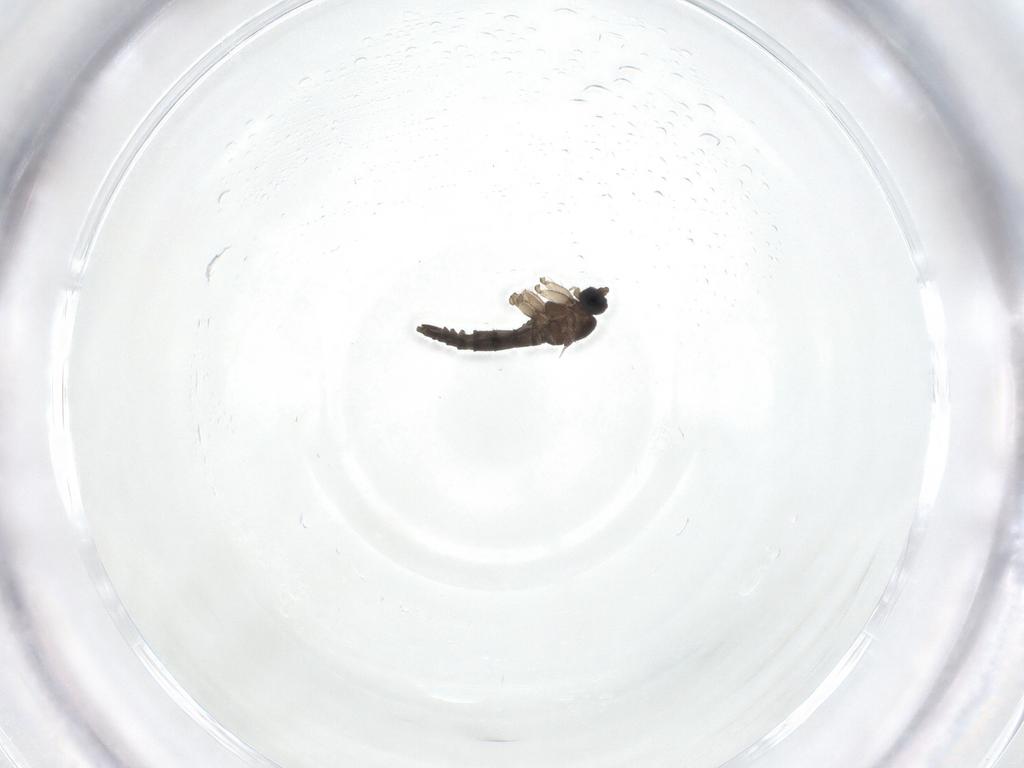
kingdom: Animalia
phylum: Arthropoda
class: Insecta
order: Diptera
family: Sciaridae
